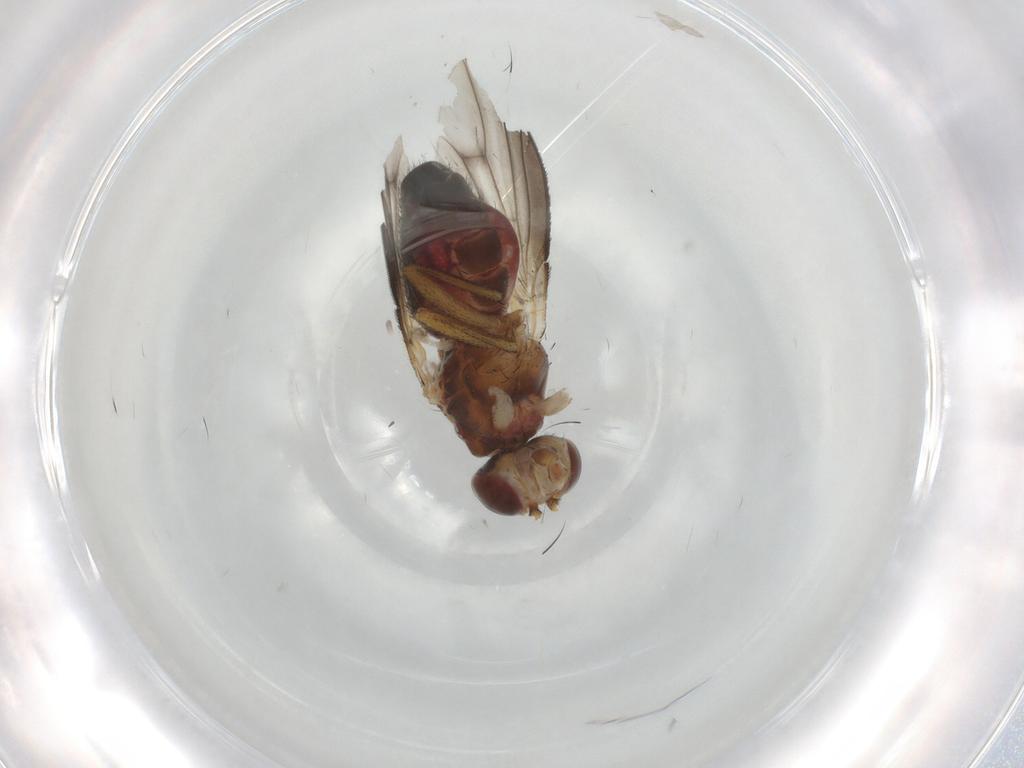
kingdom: Animalia
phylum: Arthropoda
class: Insecta
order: Diptera
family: Heleomyzidae
